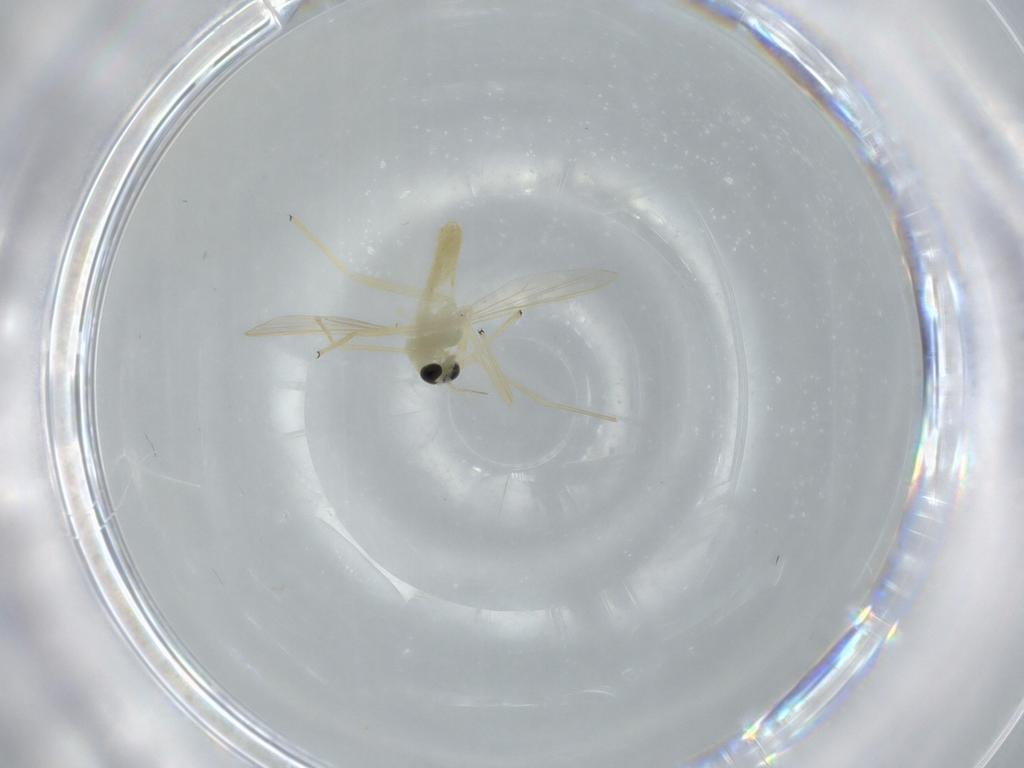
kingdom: Animalia
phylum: Arthropoda
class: Insecta
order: Diptera
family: Chironomidae
